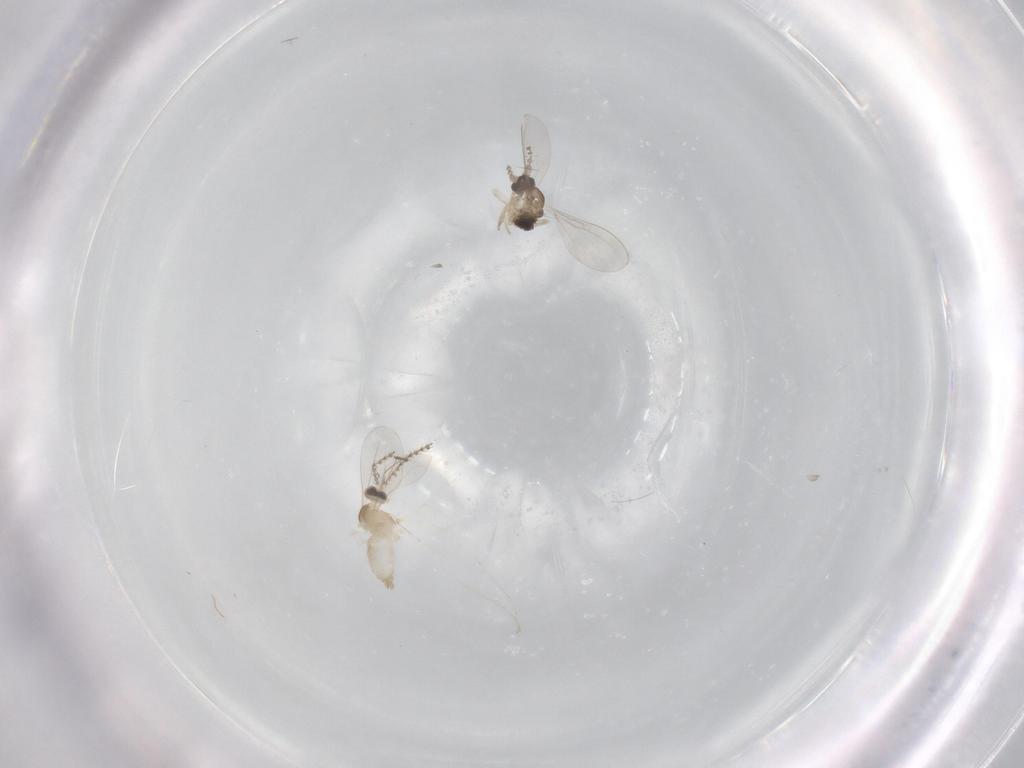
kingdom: Animalia
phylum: Arthropoda
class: Insecta
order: Diptera
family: Cecidomyiidae
